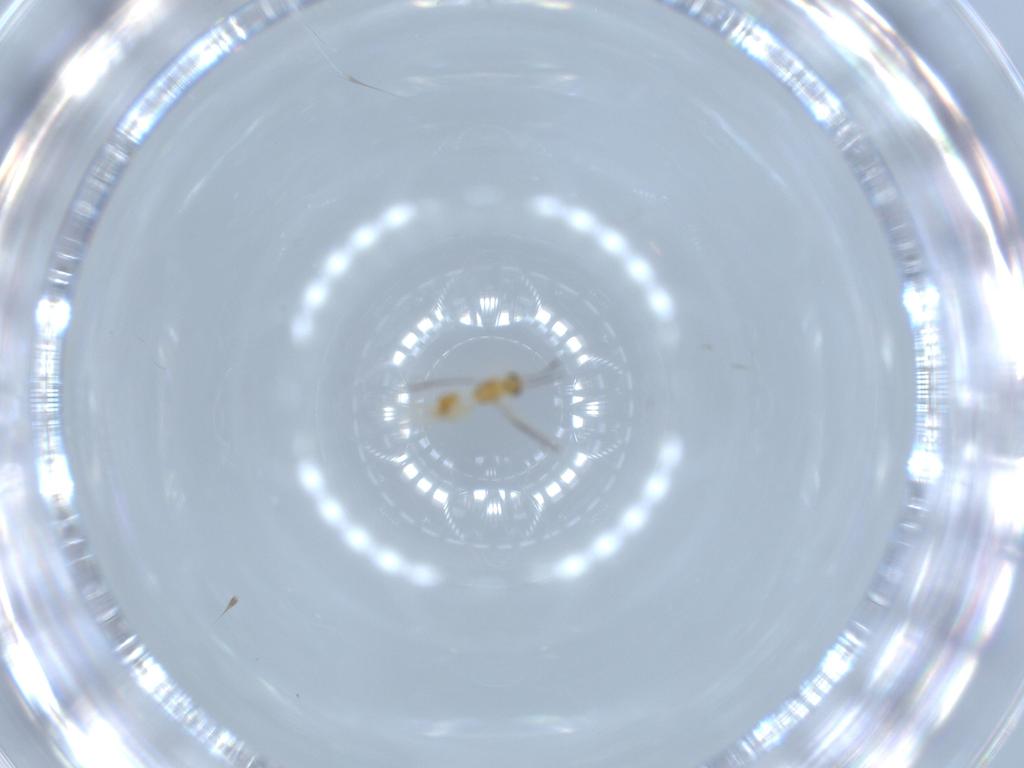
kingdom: Animalia
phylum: Arthropoda
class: Insecta
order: Hymenoptera
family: Mymaridae
